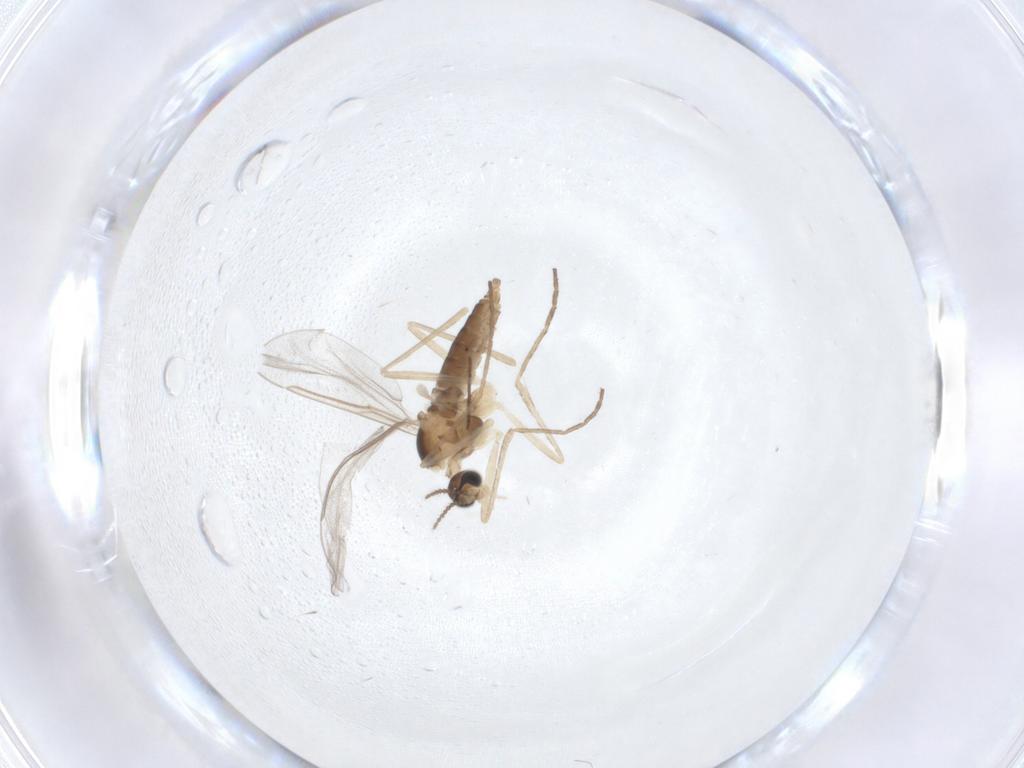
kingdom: Animalia
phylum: Arthropoda
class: Insecta
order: Diptera
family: Cecidomyiidae
